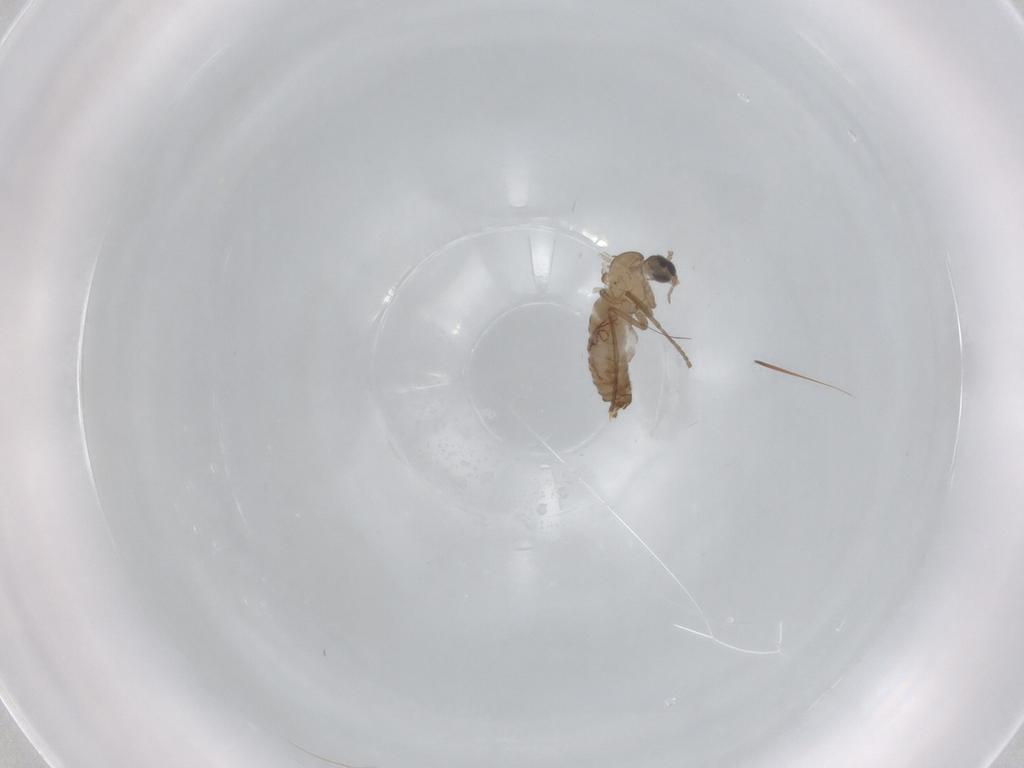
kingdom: Animalia
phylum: Arthropoda
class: Insecta
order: Diptera
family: Psychodidae
